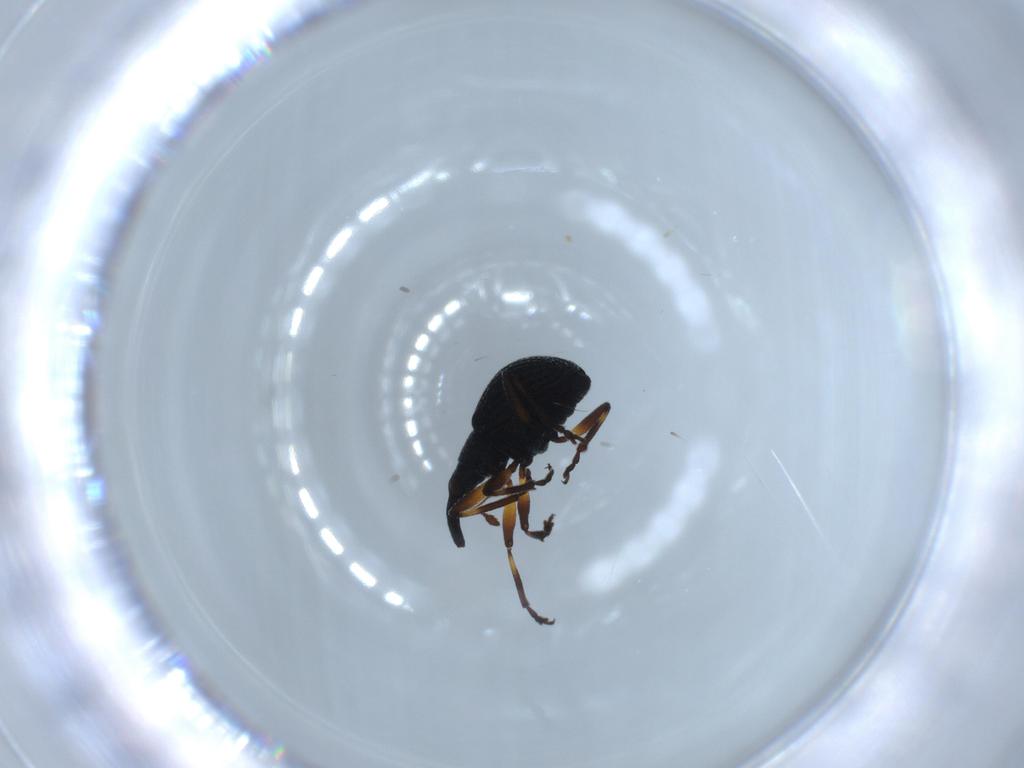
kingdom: Animalia
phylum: Arthropoda
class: Insecta
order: Coleoptera
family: Brentidae
